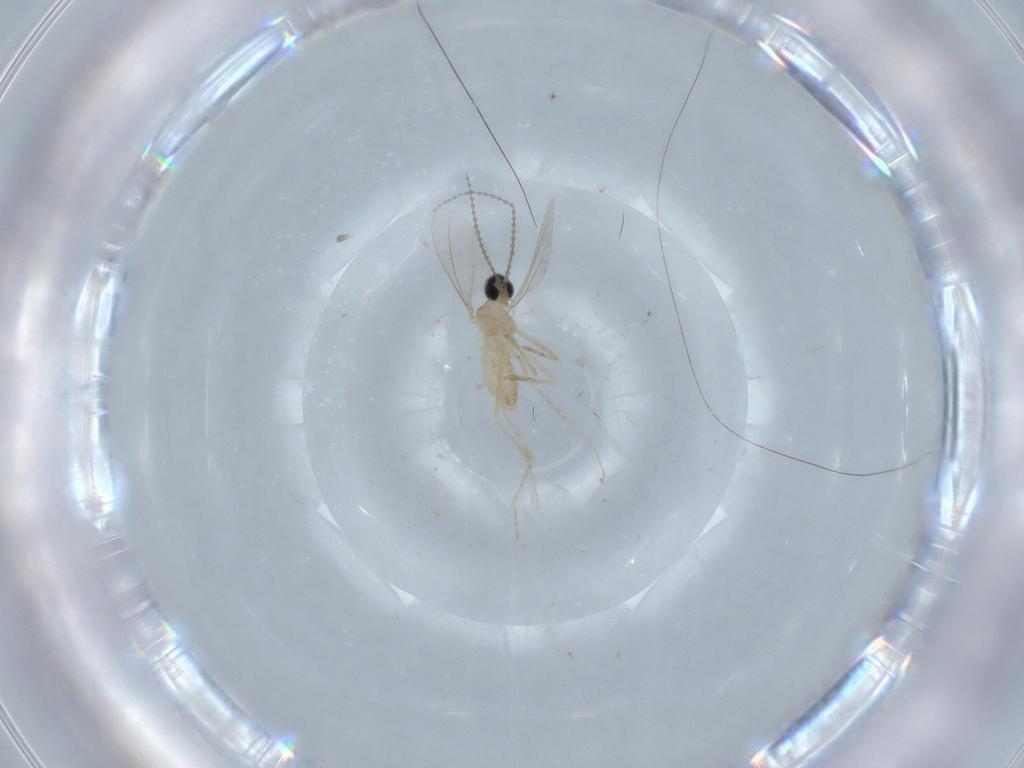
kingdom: Animalia
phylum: Arthropoda
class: Insecta
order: Diptera
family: Cecidomyiidae
